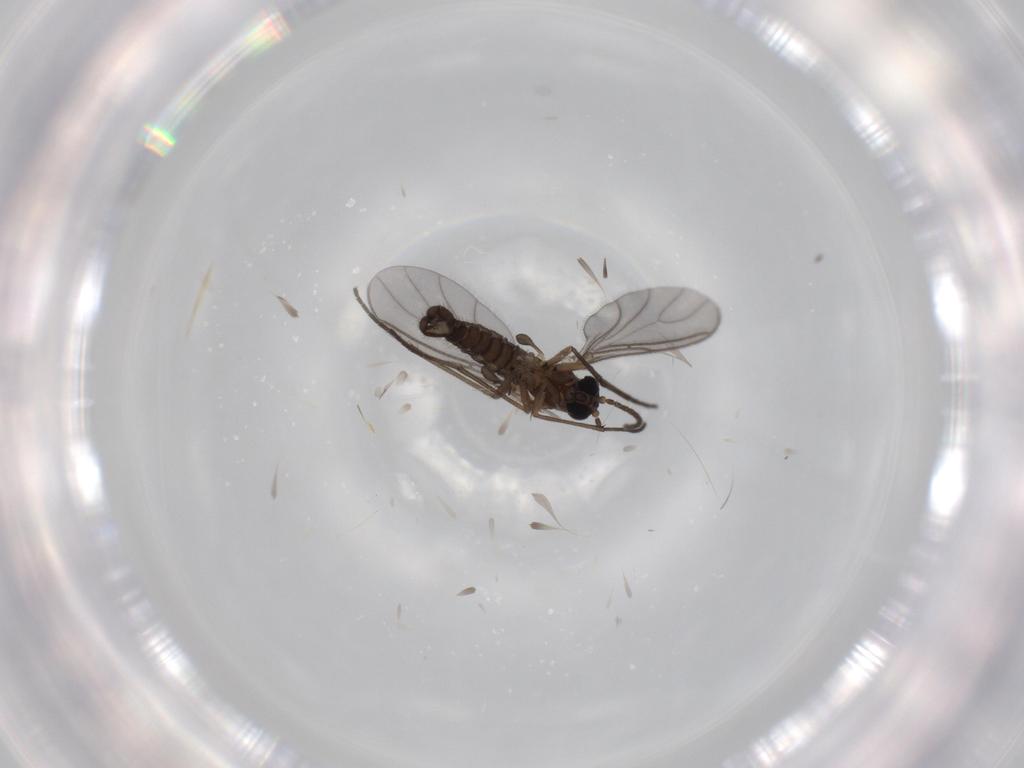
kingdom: Animalia
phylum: Arthropoda
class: Insecta
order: Diptera
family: Sciaridae
